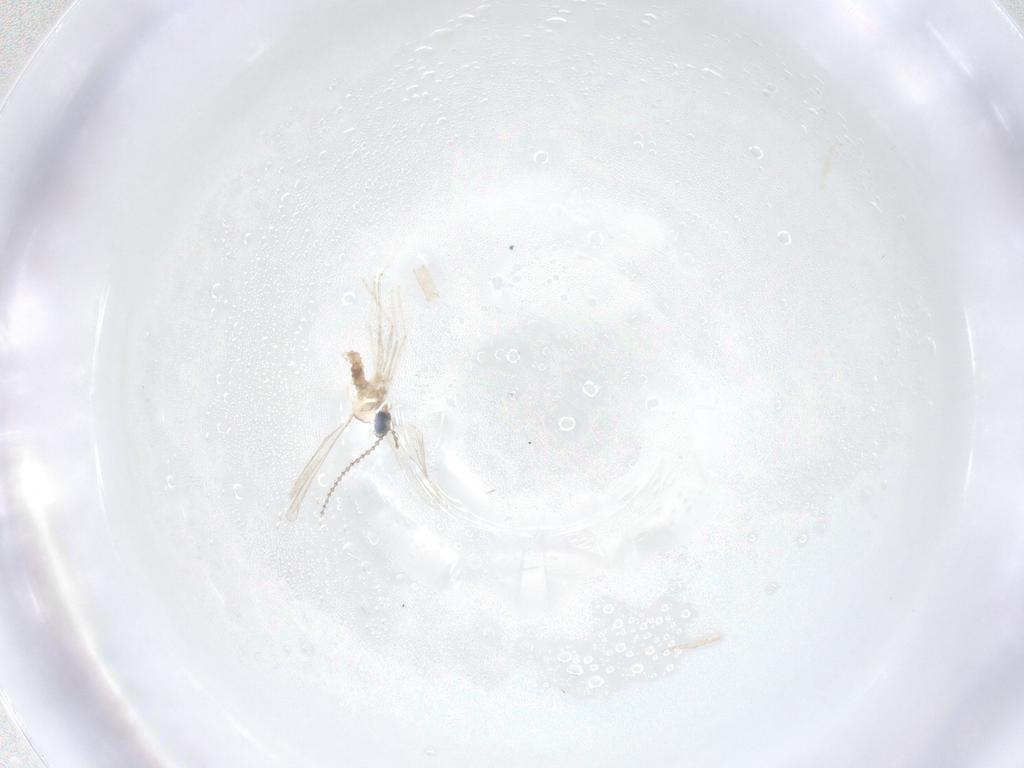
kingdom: Animalia
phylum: Arthropoda
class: Insecta
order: Diptera
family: Cecidomyiidae
